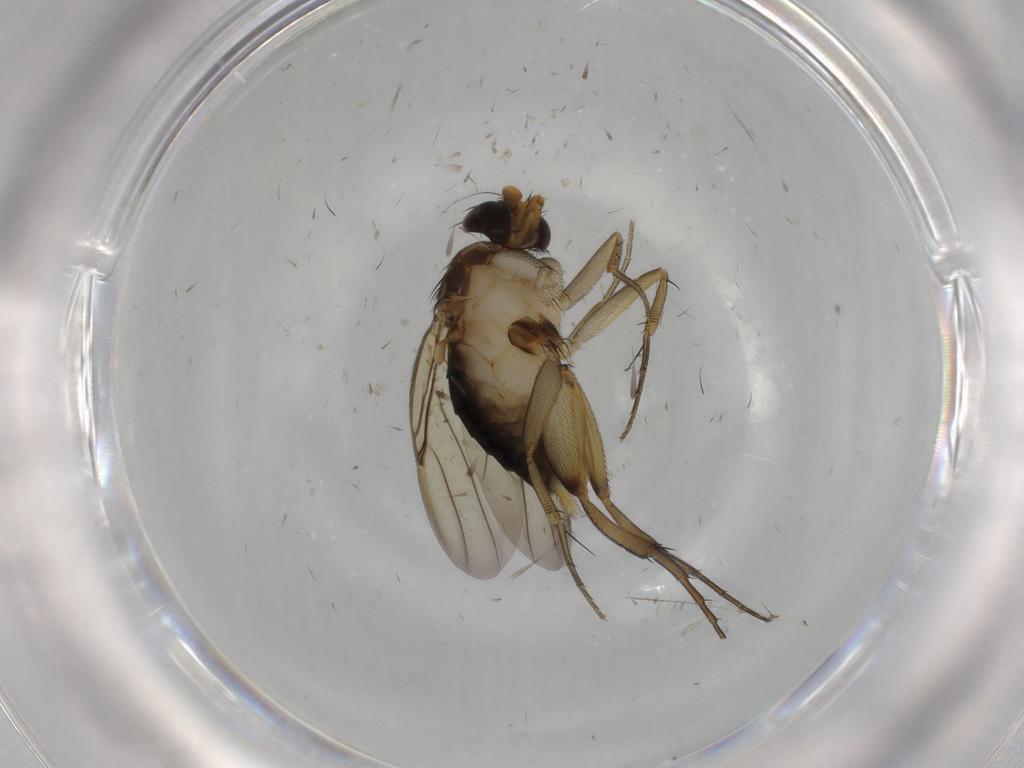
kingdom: Animalia
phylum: Arthropoda
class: Insecta
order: Diptera
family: Phoridae
